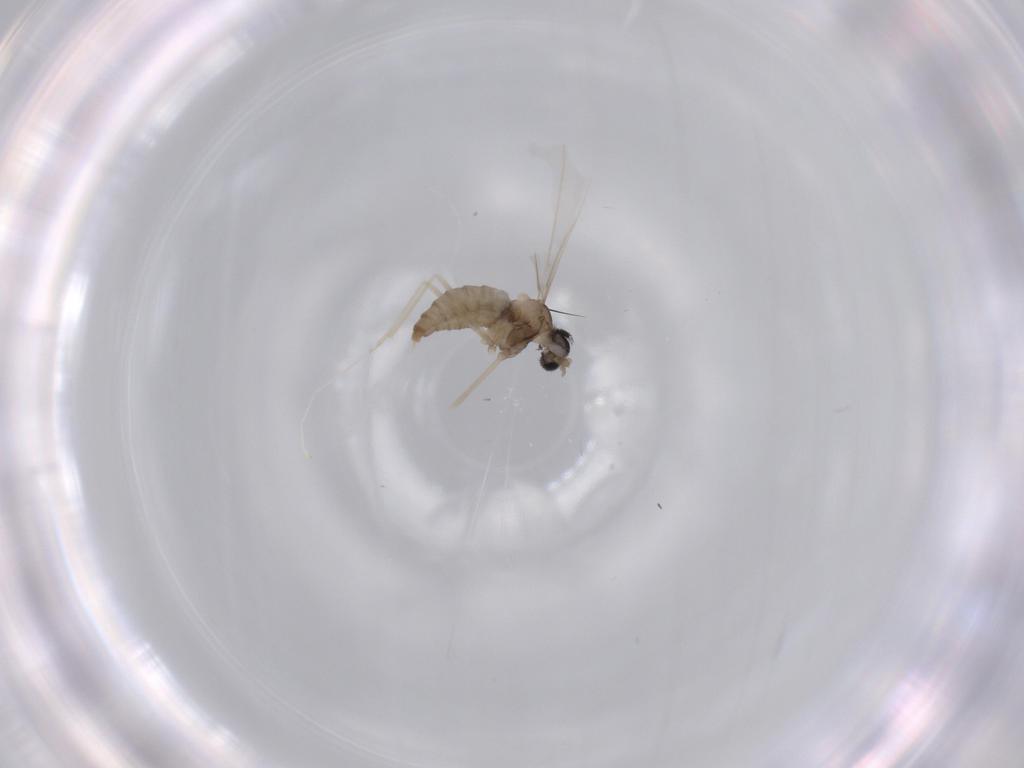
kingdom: Animalia
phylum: Arthropoda
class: Insecta
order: Diptera
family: Cecidomyiidae
